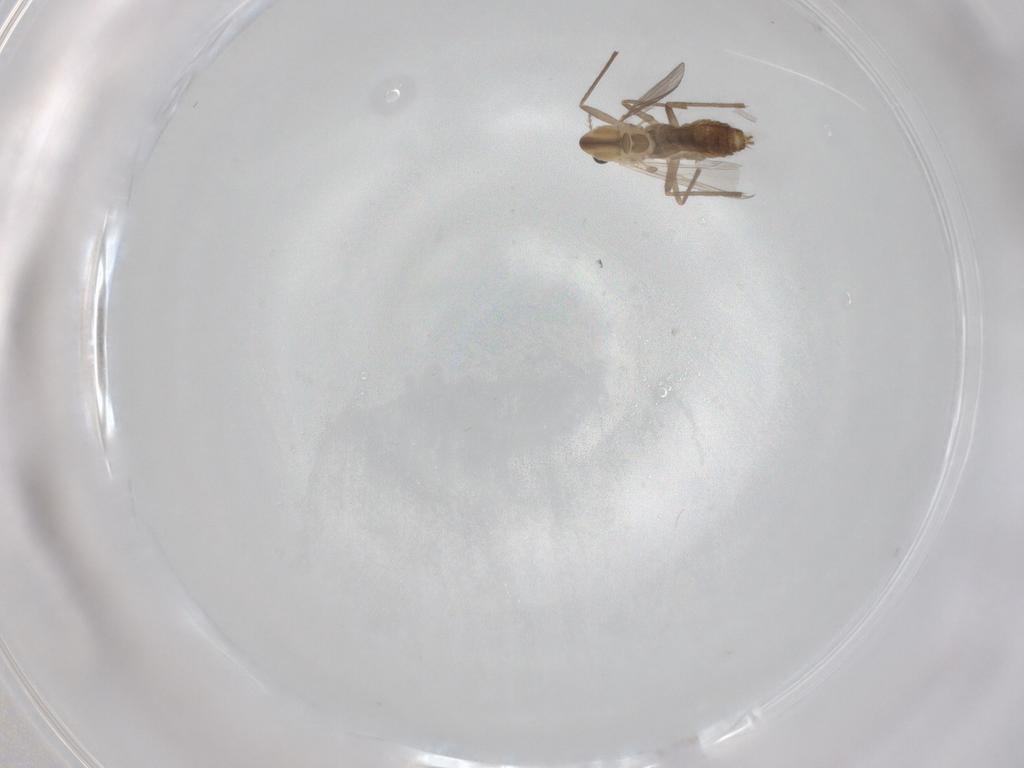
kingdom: Animalia
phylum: Arthropoda
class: Insecta
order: Diptera
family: Chironomidae
